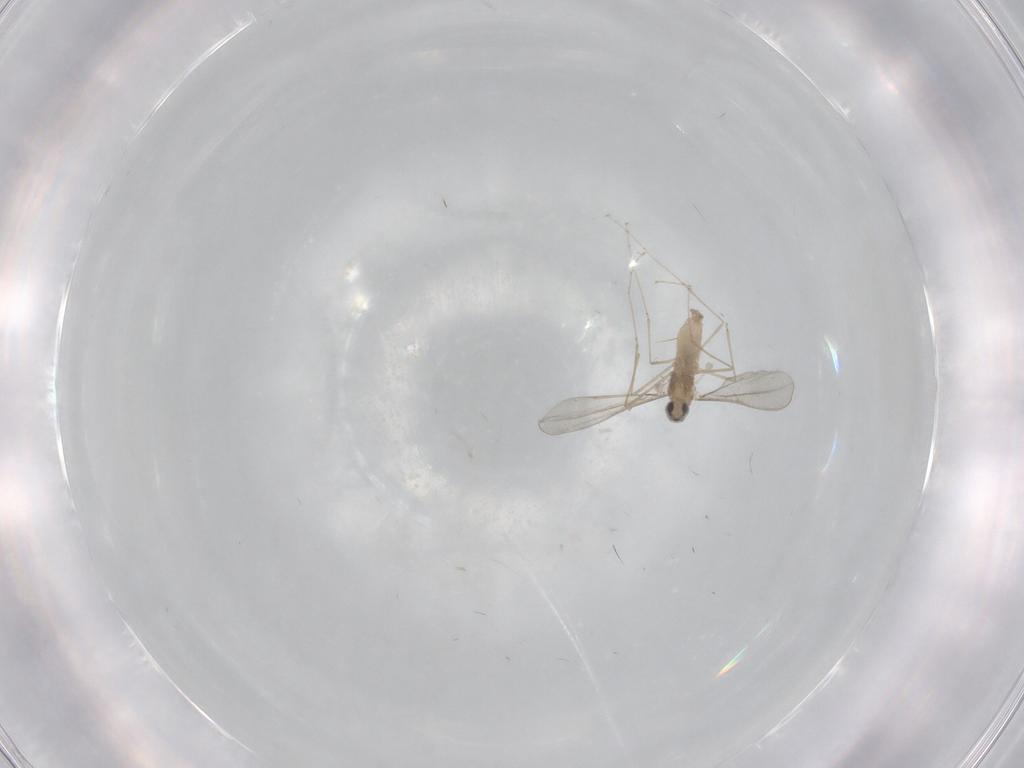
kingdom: Animalia
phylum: Arthropoda
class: Insecta
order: Diptera
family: Cecidomyiidae
